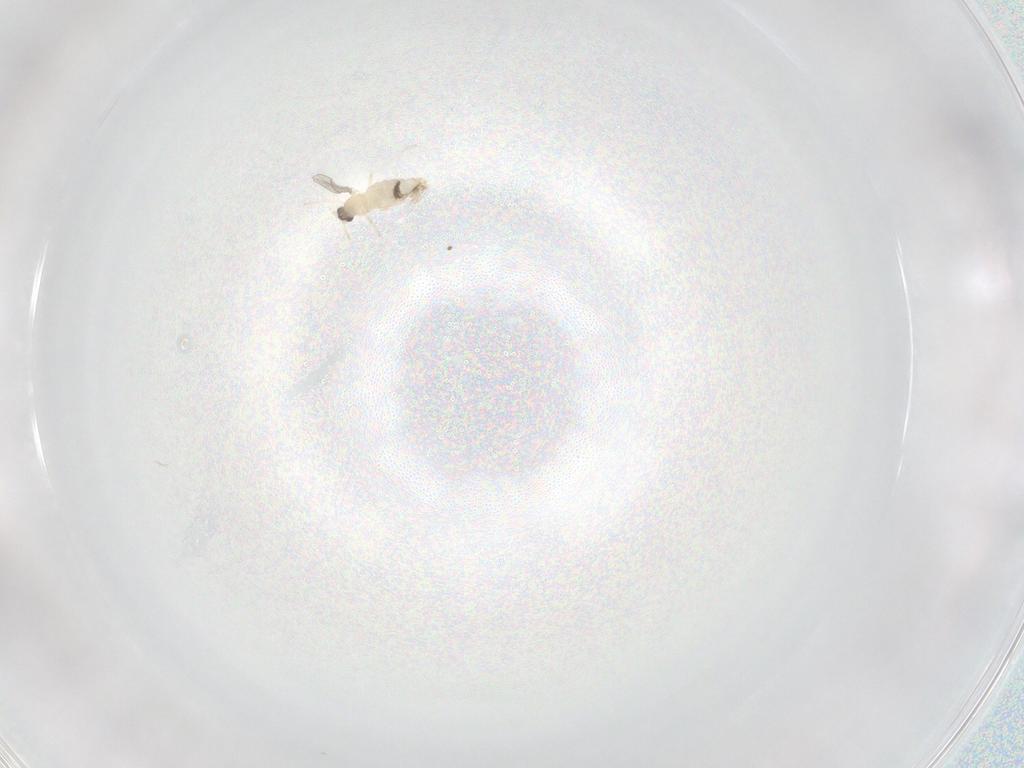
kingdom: Animalia
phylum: Arthropoda
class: Insecta
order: Diptera
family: Cecidomyiidae
